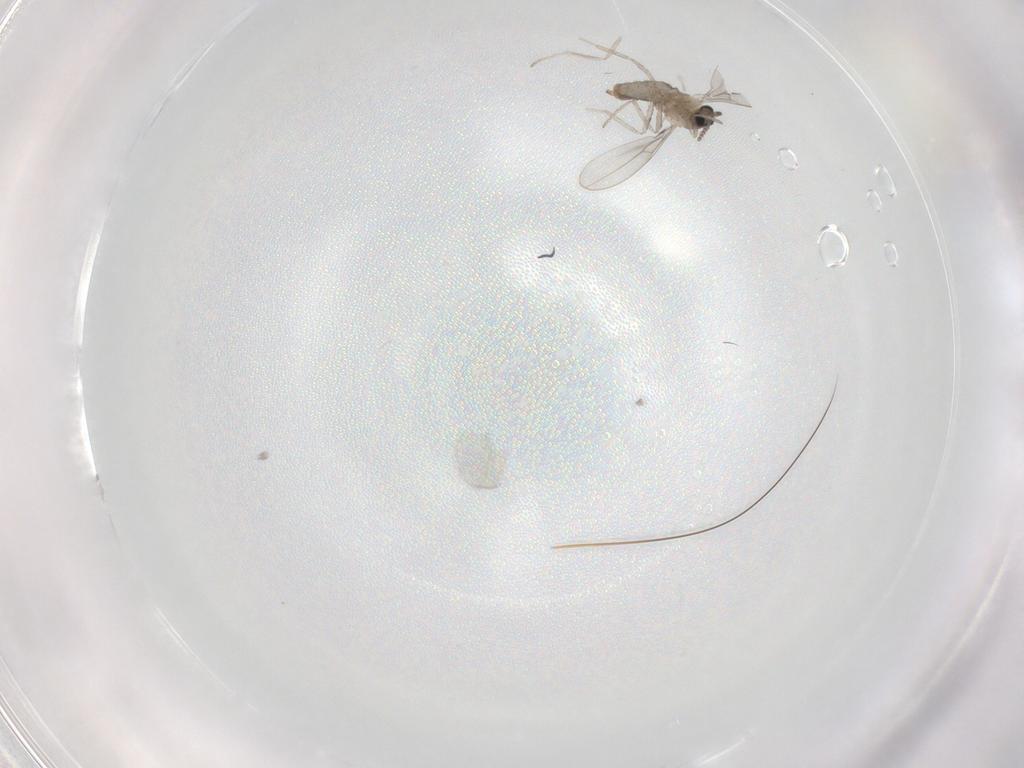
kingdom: Animalia
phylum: Arthropoda
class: Insecta
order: Diptera
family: Cecidomyiidae
